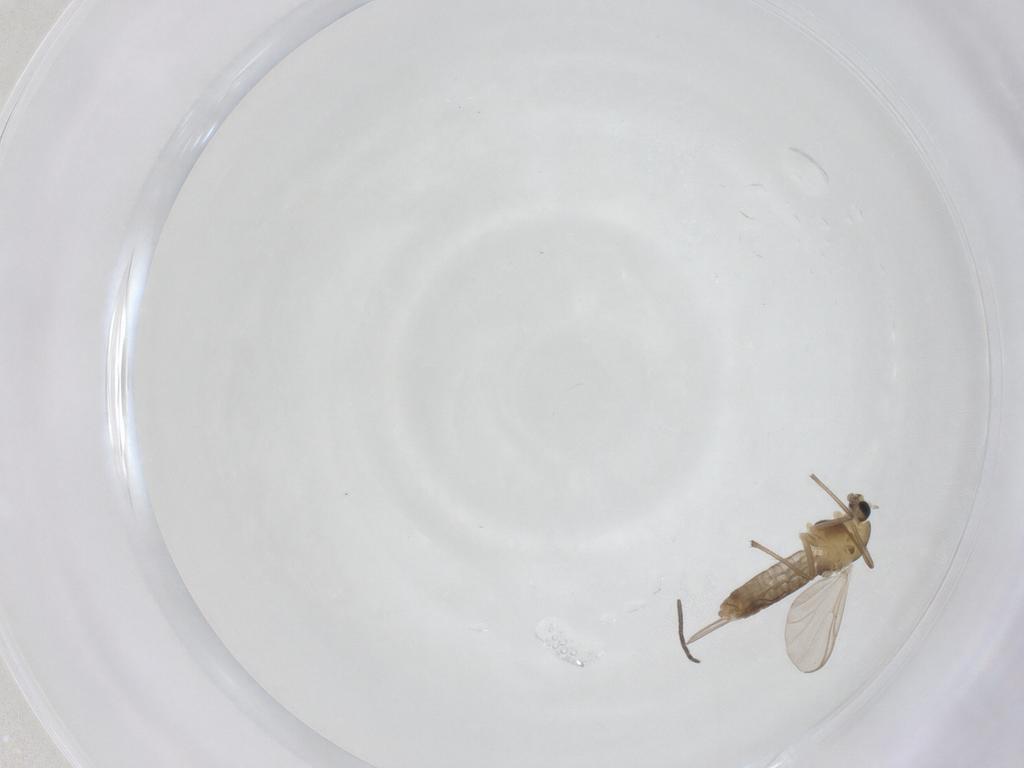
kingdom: Animalia
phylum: Arthropoda
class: Insecta
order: Diptera
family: Chironomidae
